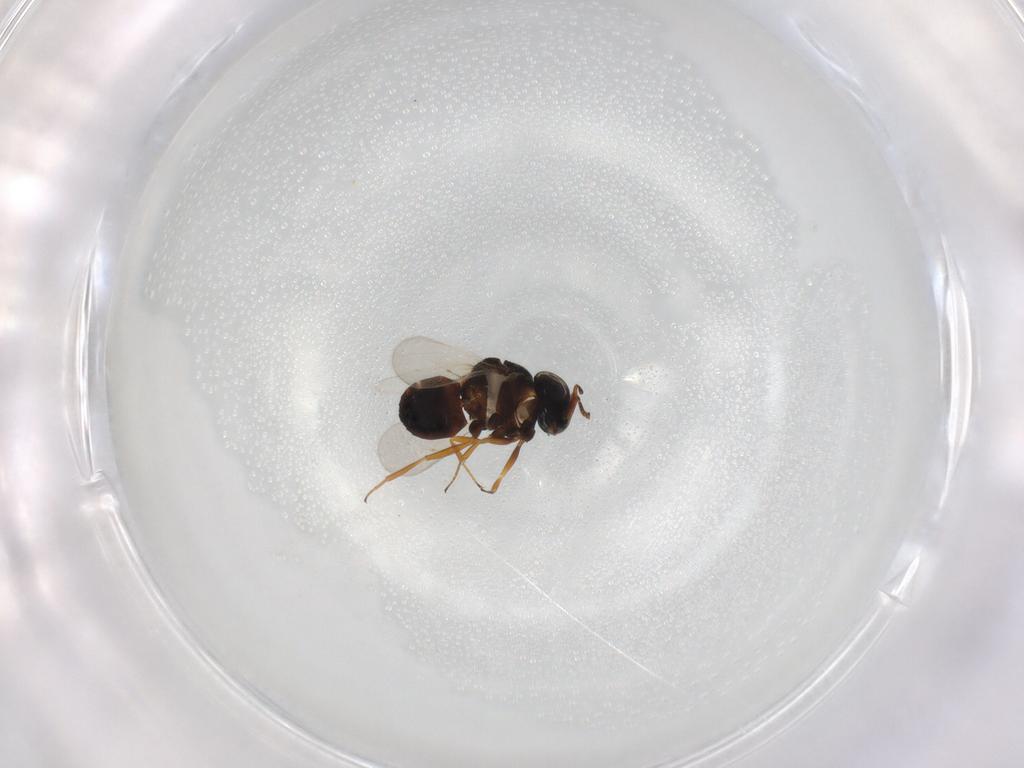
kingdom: Animalia
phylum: Arthropoda
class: Insecta
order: Hymenoptera
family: Scelionidae
